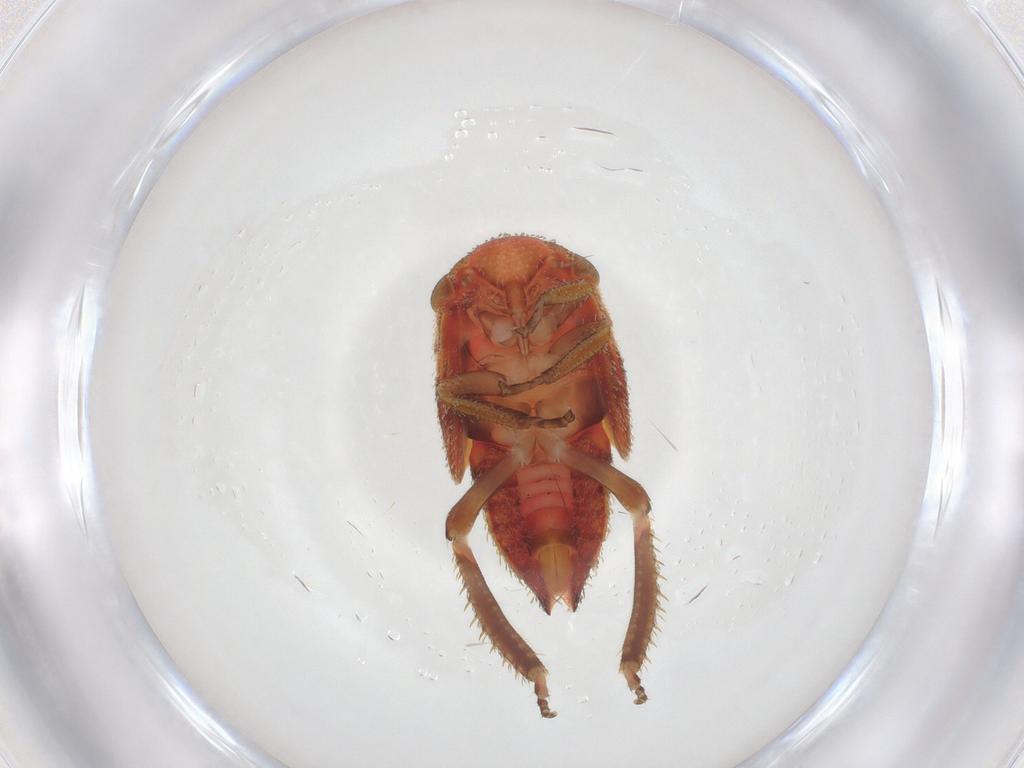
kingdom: Animalia
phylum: Arthropoda
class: Insecta
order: Hemiptera
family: Cicadellidae
